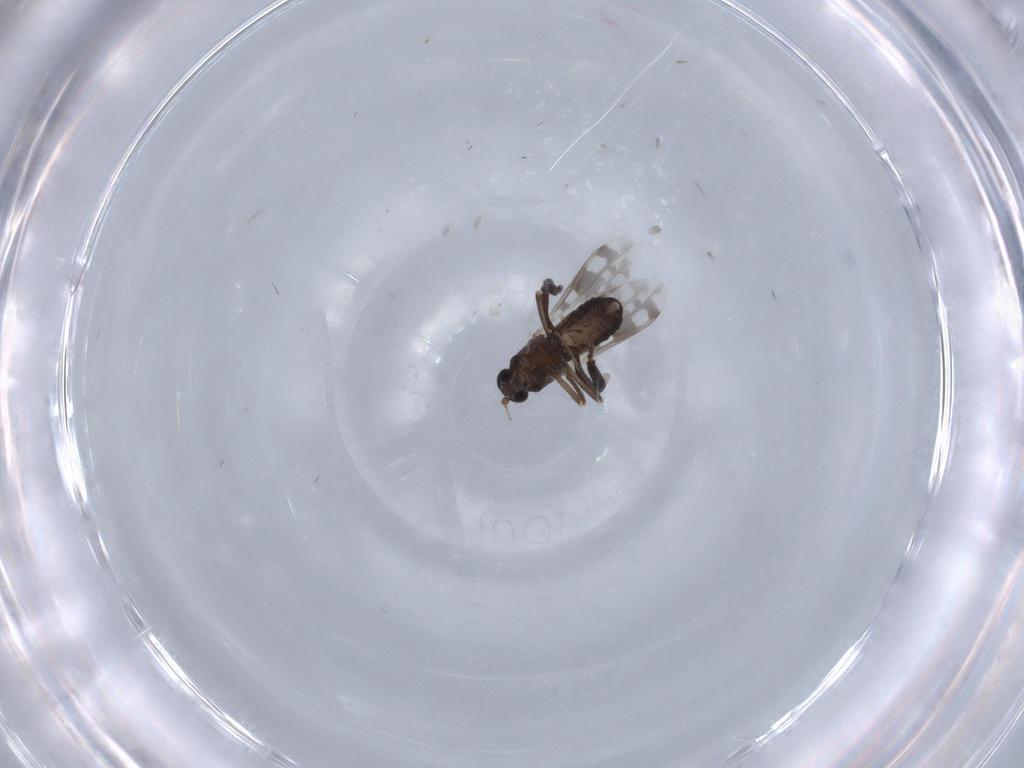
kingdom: Animalia
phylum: Arthropoda
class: Insecta
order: Diptera
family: Ceratopogonidae
